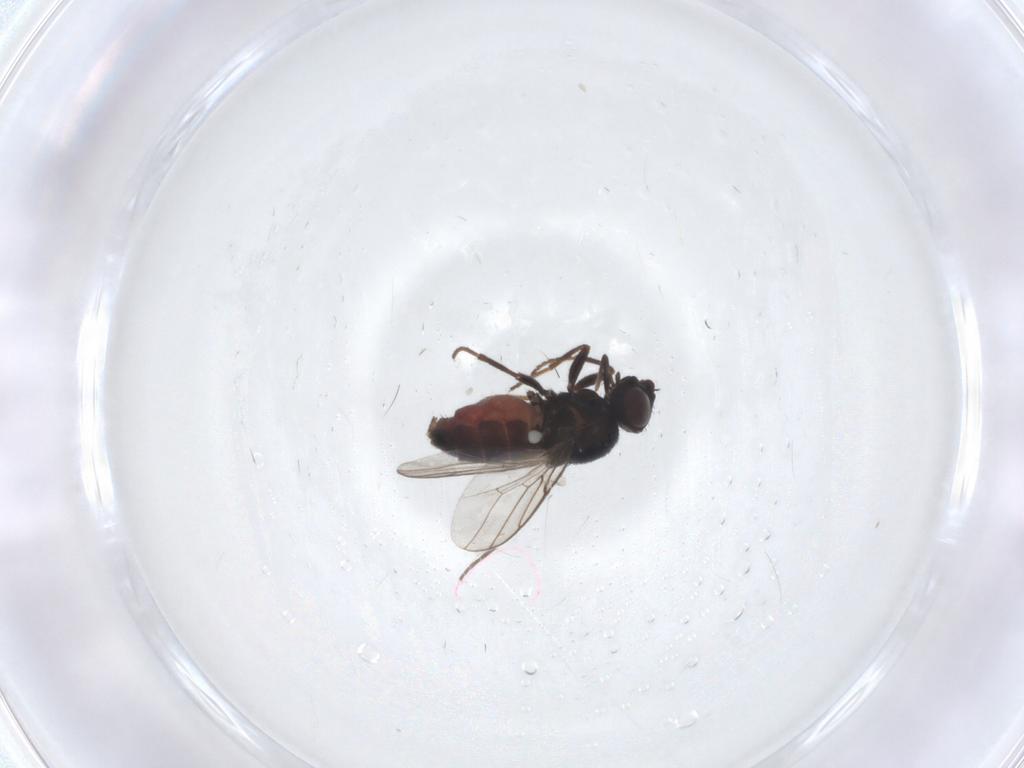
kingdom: Animalia
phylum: Arthropoda
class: Insecta
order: Diptera
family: Chloropidae
